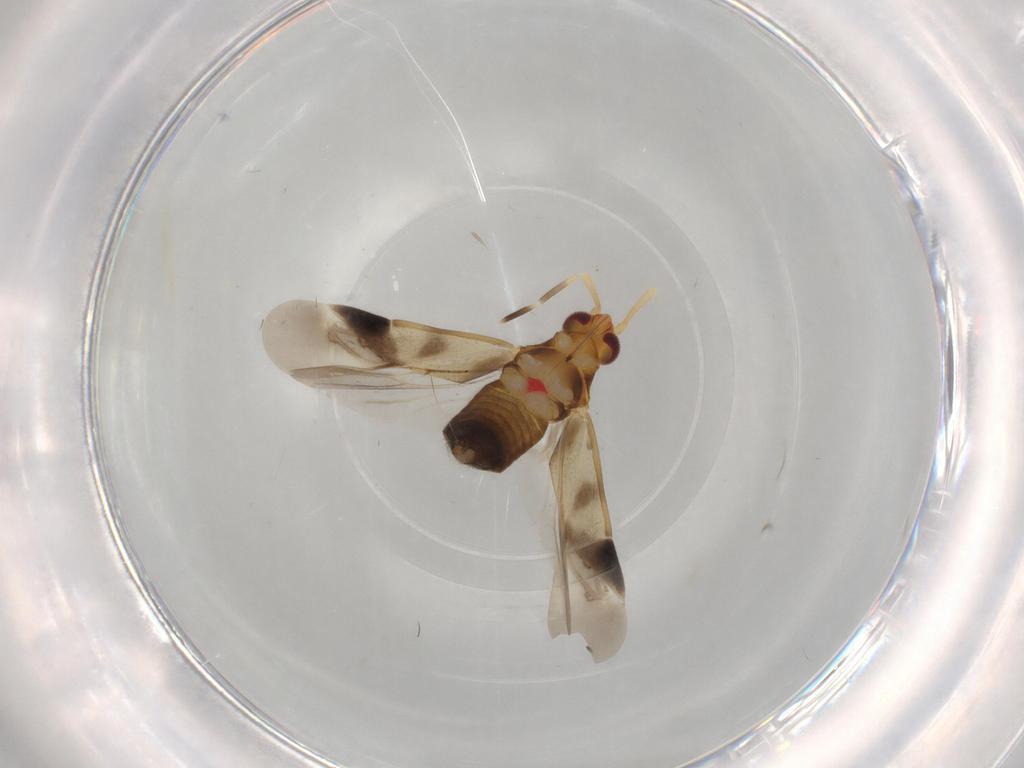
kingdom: Animalia
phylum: Arthropoda
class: Insecta
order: Hemiptera
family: Miridae
